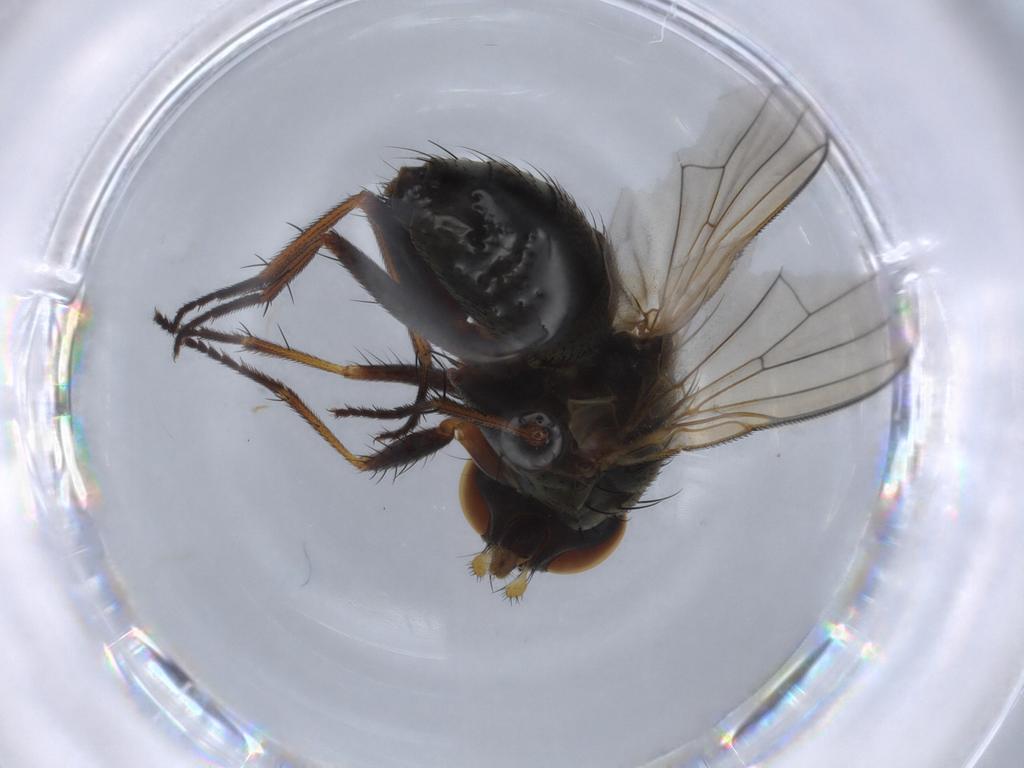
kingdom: Animalia
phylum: Arthropoda
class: Insecta
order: Diptera
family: Muscidae
